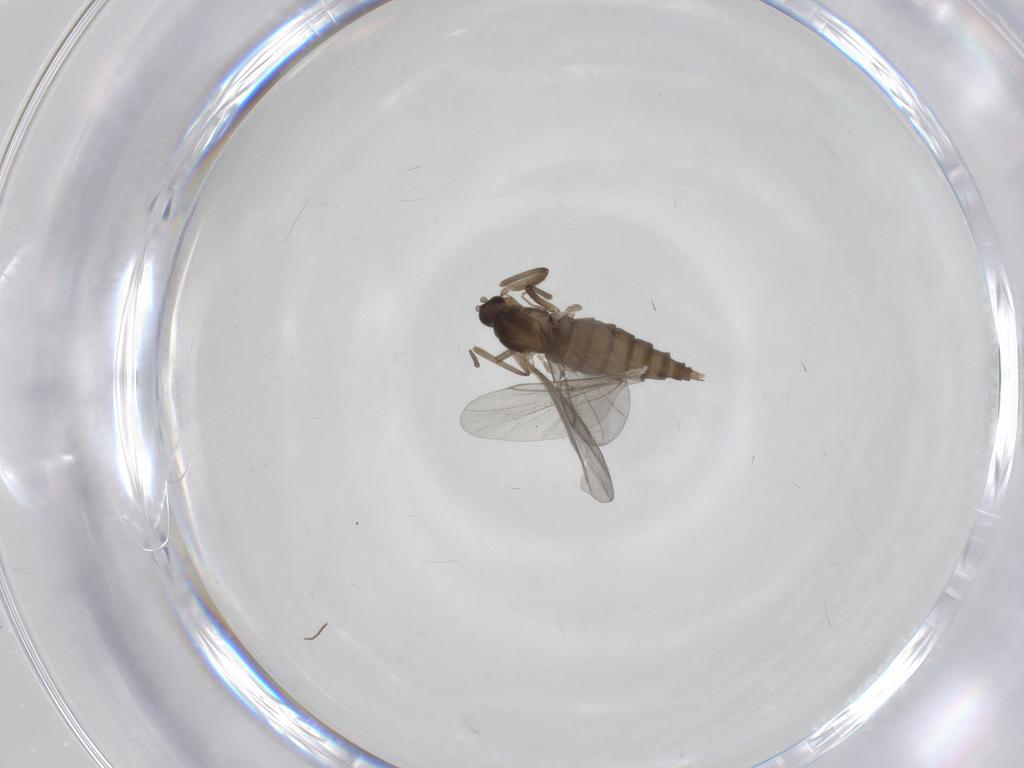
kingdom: Animalia
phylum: Arthropoda
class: Insecta
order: Diptera
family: Cecidomyiidae
